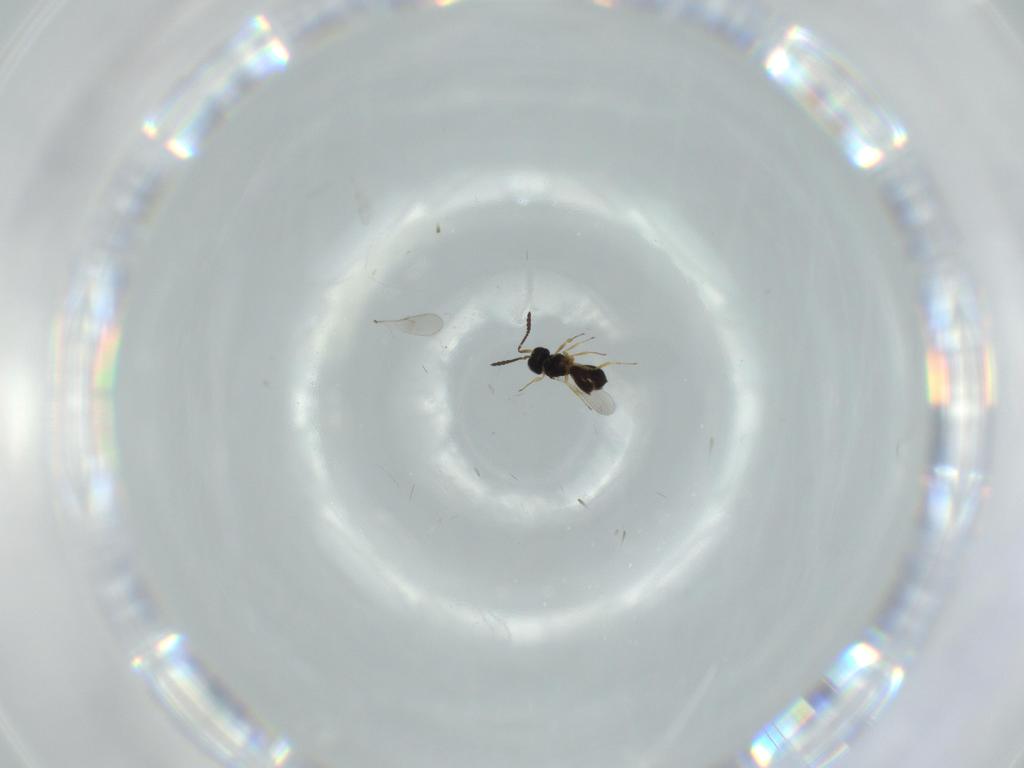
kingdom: Animalia
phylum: Arthropoda
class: Insecta
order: Hymenoptera
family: Scelionidae
